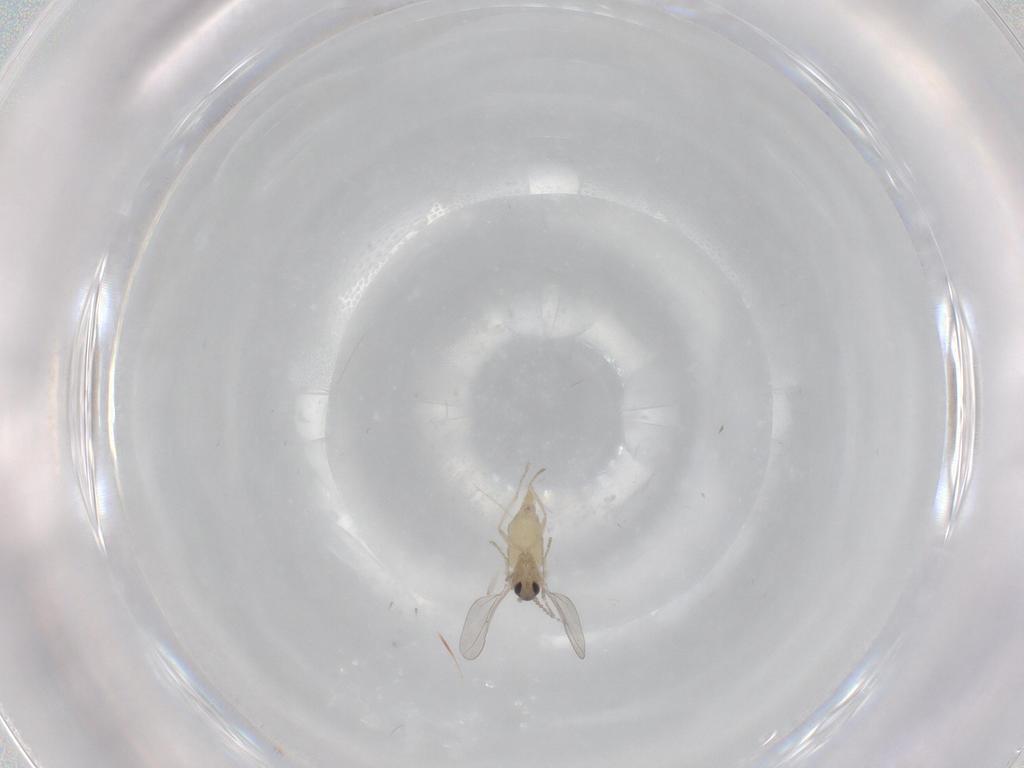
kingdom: Animalia
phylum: Arthropoda
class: Insecta
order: Diptera
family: Cecidomyiidae
